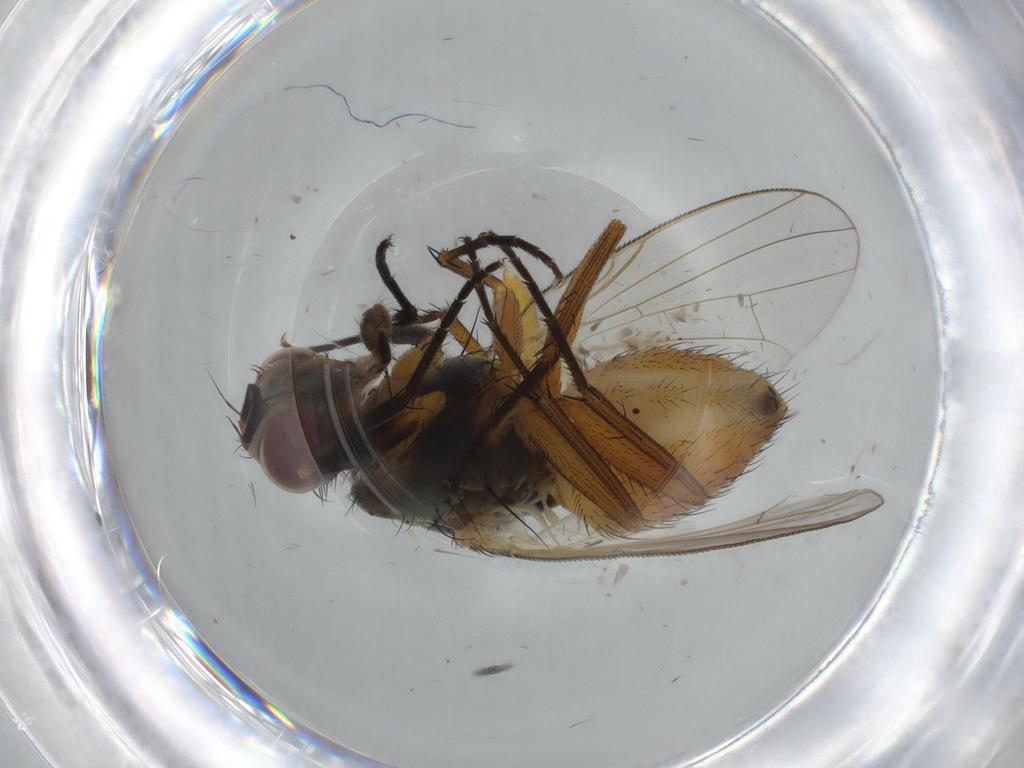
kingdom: Animalia
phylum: Arthropoda
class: Insecta
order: Diptera
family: Muscidae
